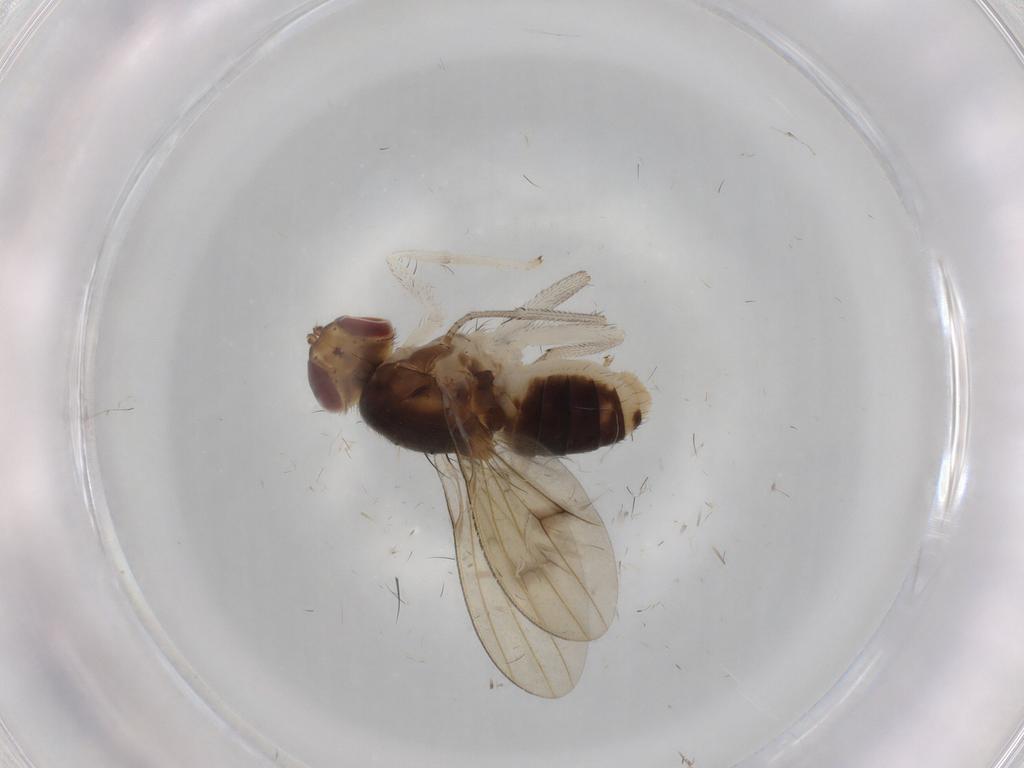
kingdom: Animalia
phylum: Arthropoda
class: Insecta
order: Diptera
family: Lauxaniidae
